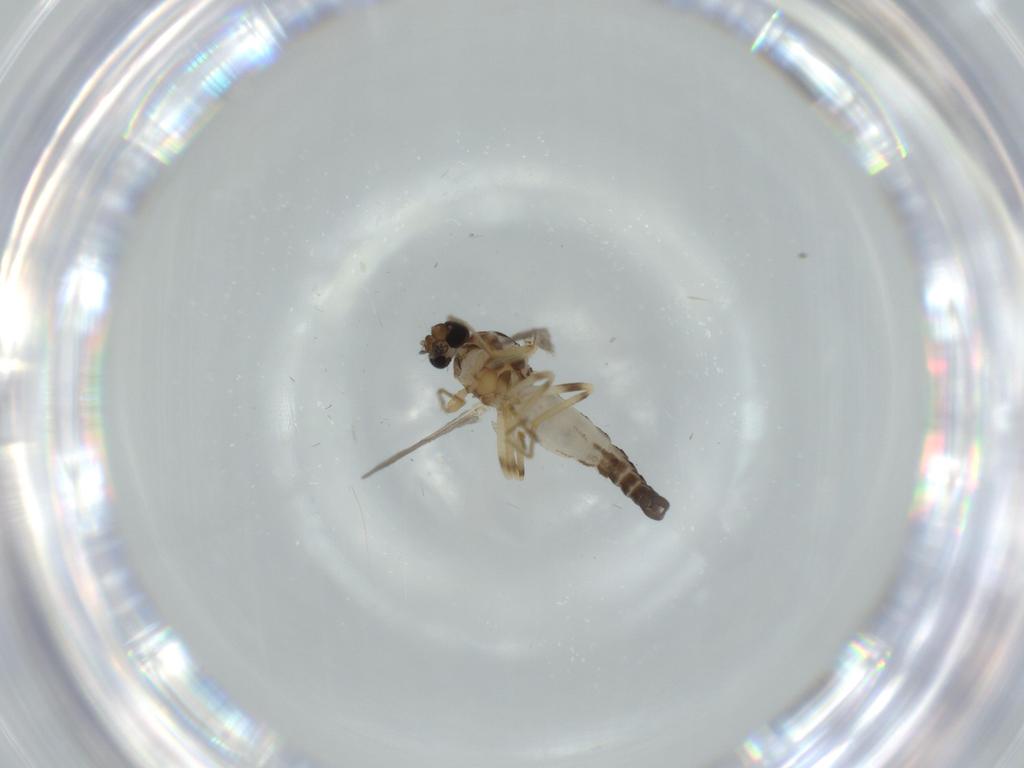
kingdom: Animalia
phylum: Arthropoda
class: Insecta
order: Diptera
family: Ceratopogonidae
